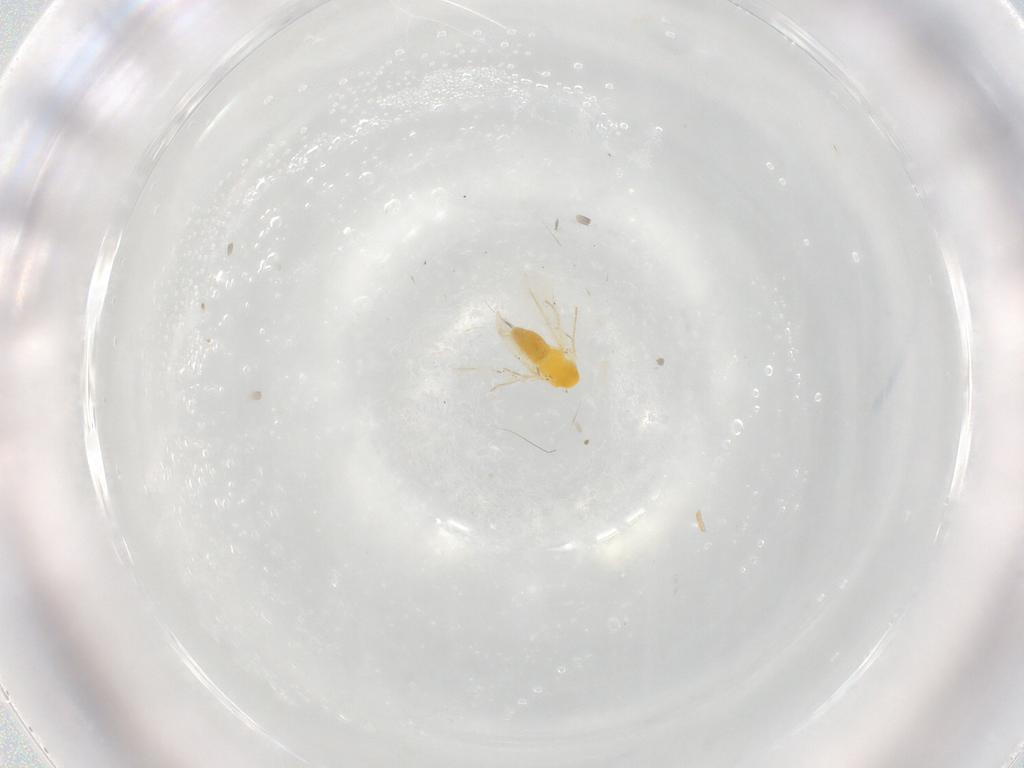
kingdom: Animalia
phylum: Arthropoda
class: Insecta
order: Hemiptera
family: Aleyrodidae
